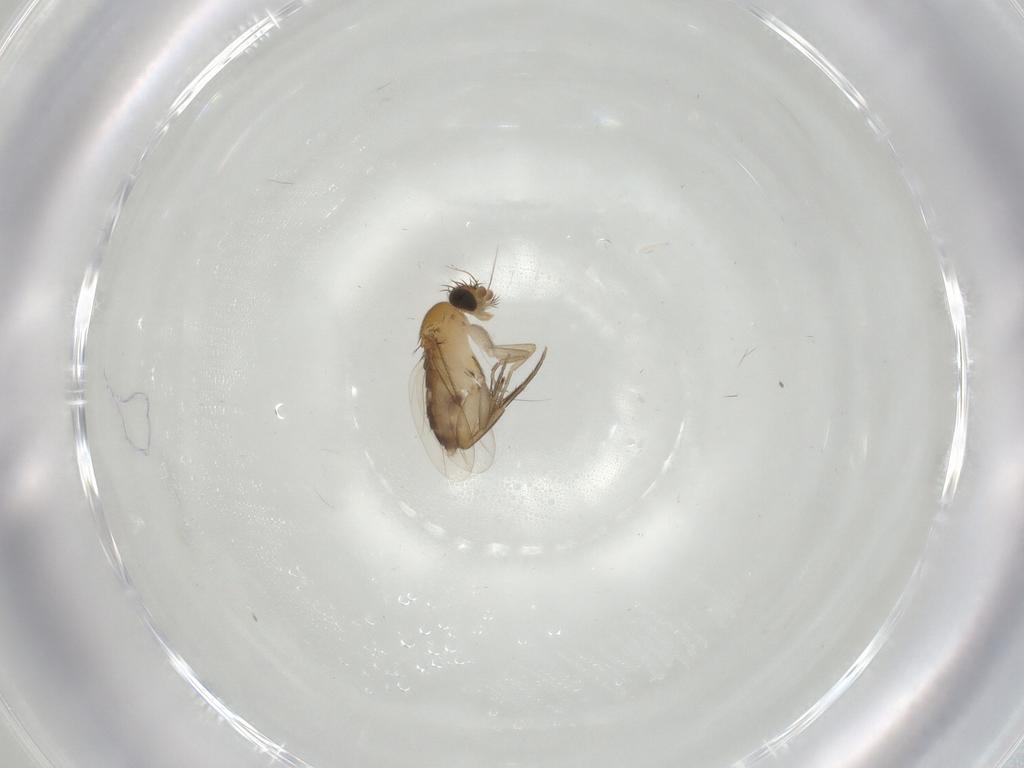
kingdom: Animalia
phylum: Arthropoda
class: Insecta
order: Diptera
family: Phoridae
